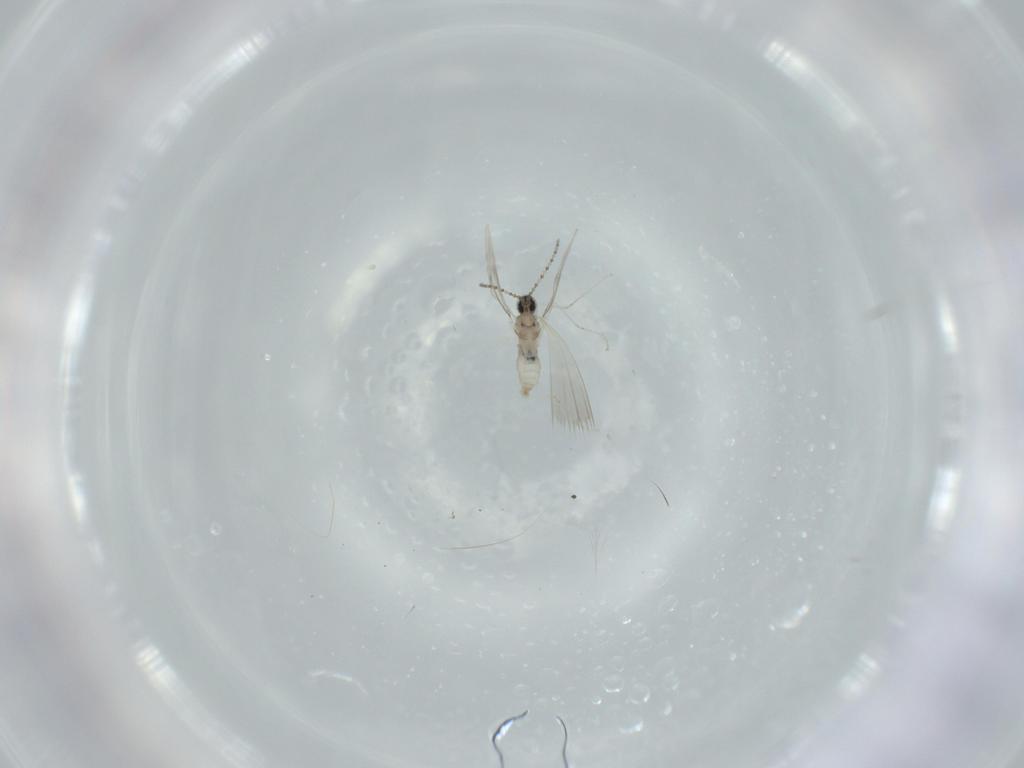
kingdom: Animalia
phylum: Arthropoda
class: Insecta
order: Diptera
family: Cecidomyiidae
